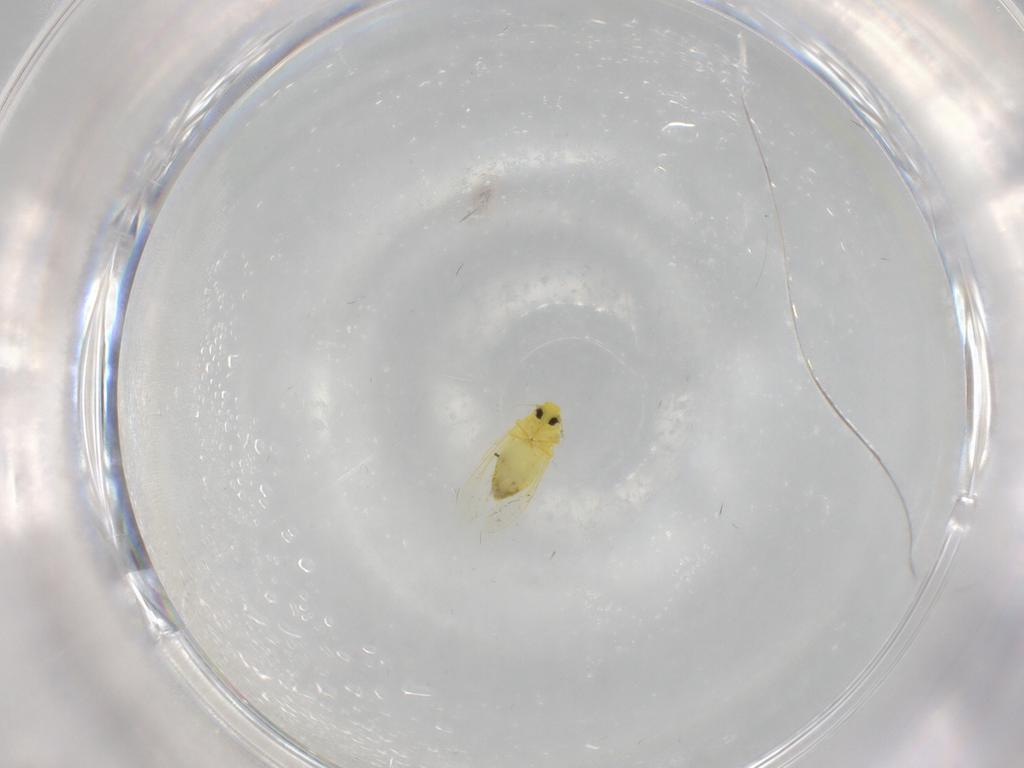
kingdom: Animalia
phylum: Arthropoda
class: Insecta
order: Hemiptera
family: Aleyrodidae
